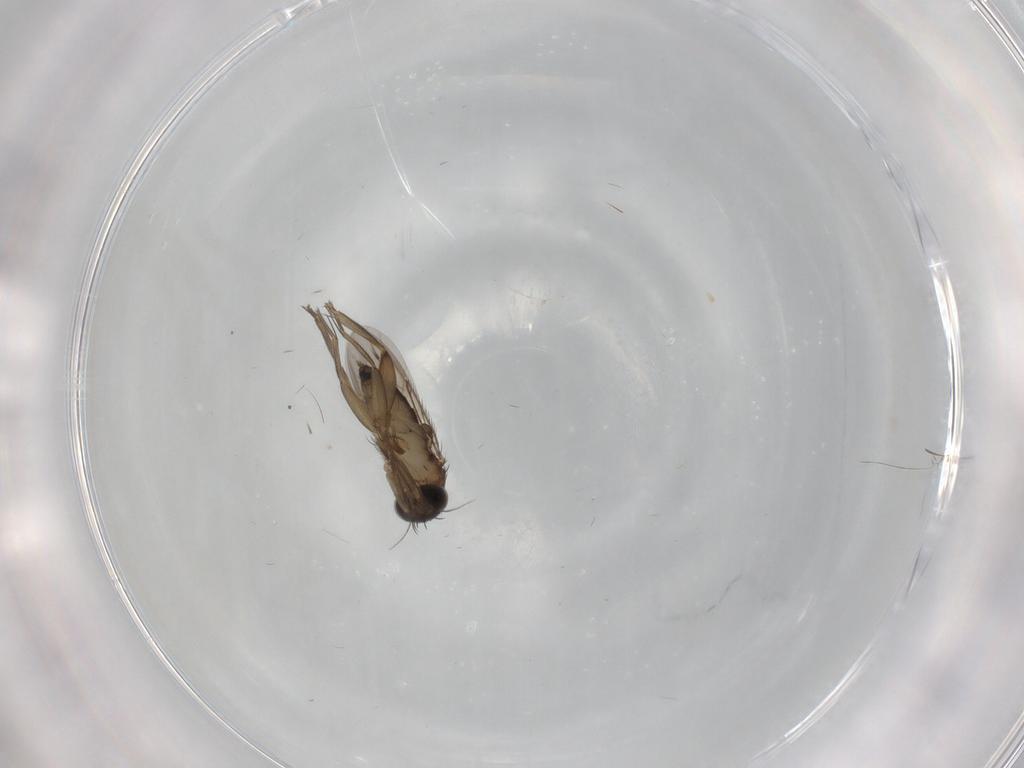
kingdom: Animalia
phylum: Arthropoda
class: Insecta
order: Diptera
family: Phoridae
